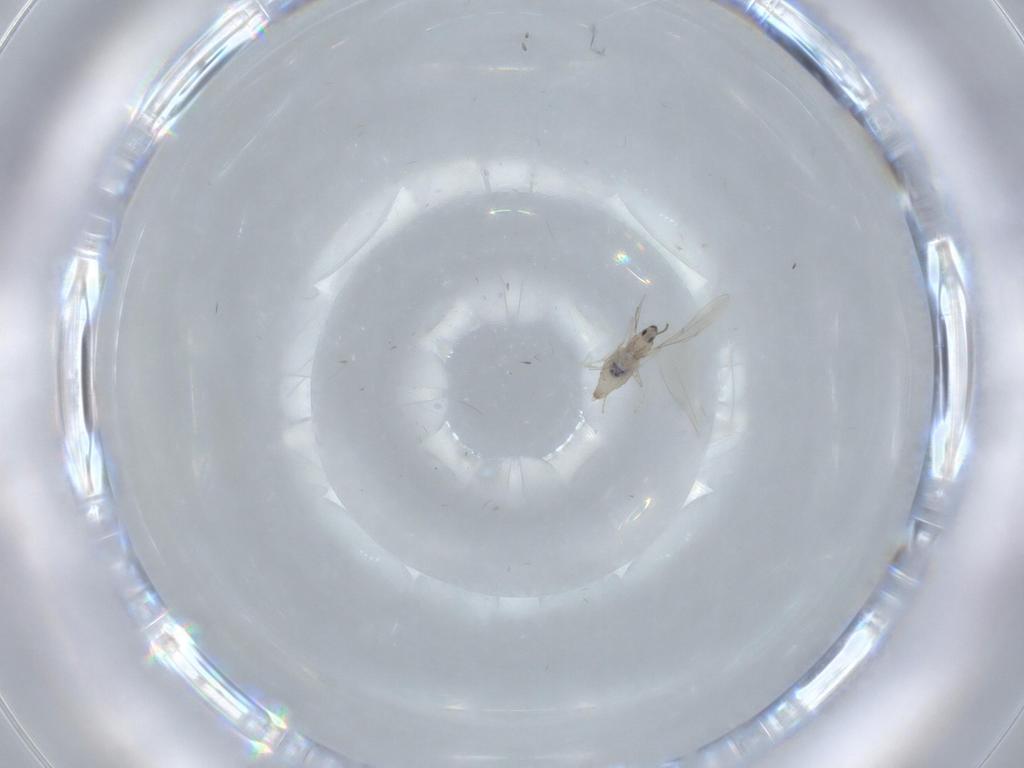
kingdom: Animalia
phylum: Arthropoda
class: Insecta
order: Diptera
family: Cecidomyiidae
